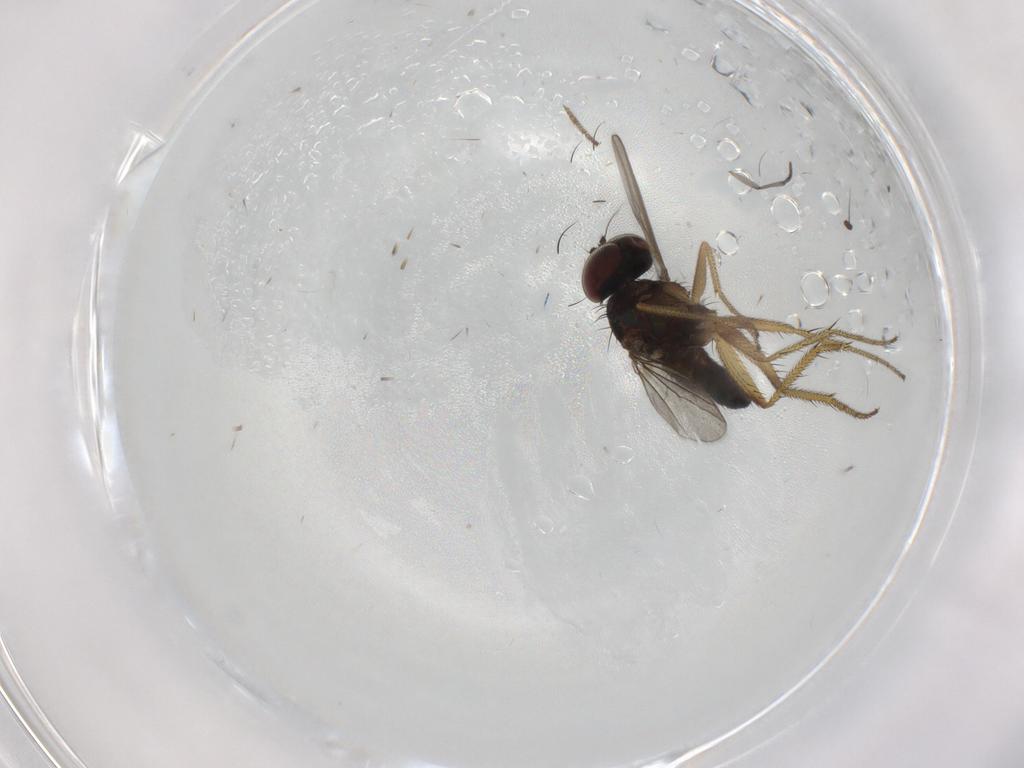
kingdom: Animalia
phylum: Arthropoda
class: Insecta
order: Diptera
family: Dolichopodidae
